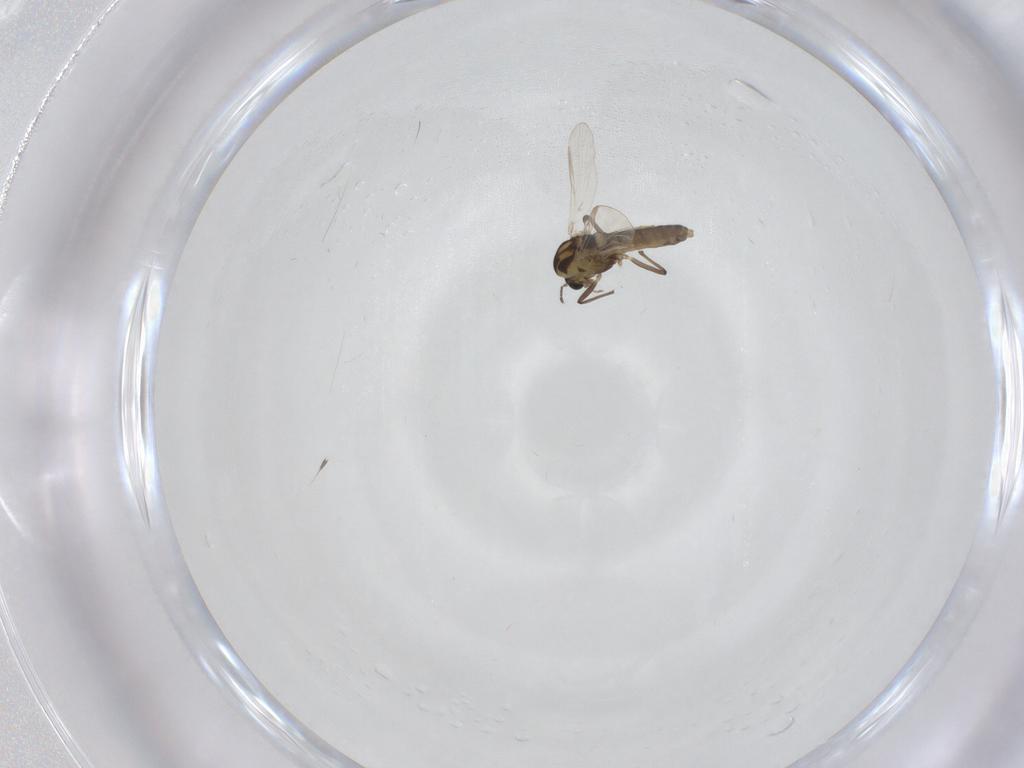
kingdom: Animalia
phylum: Arthropoda
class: Insecta
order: Diptera
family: Chironomidae
